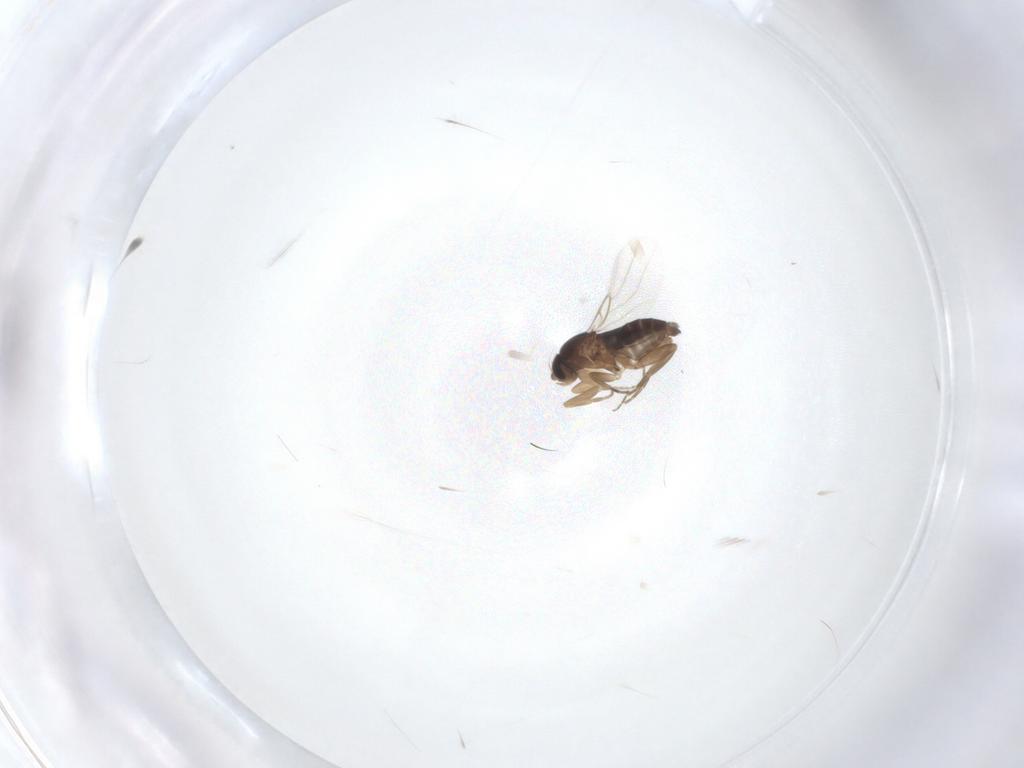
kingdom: Animalia
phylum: Arthropoda
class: Insecta
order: Diptera
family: Phoridae
